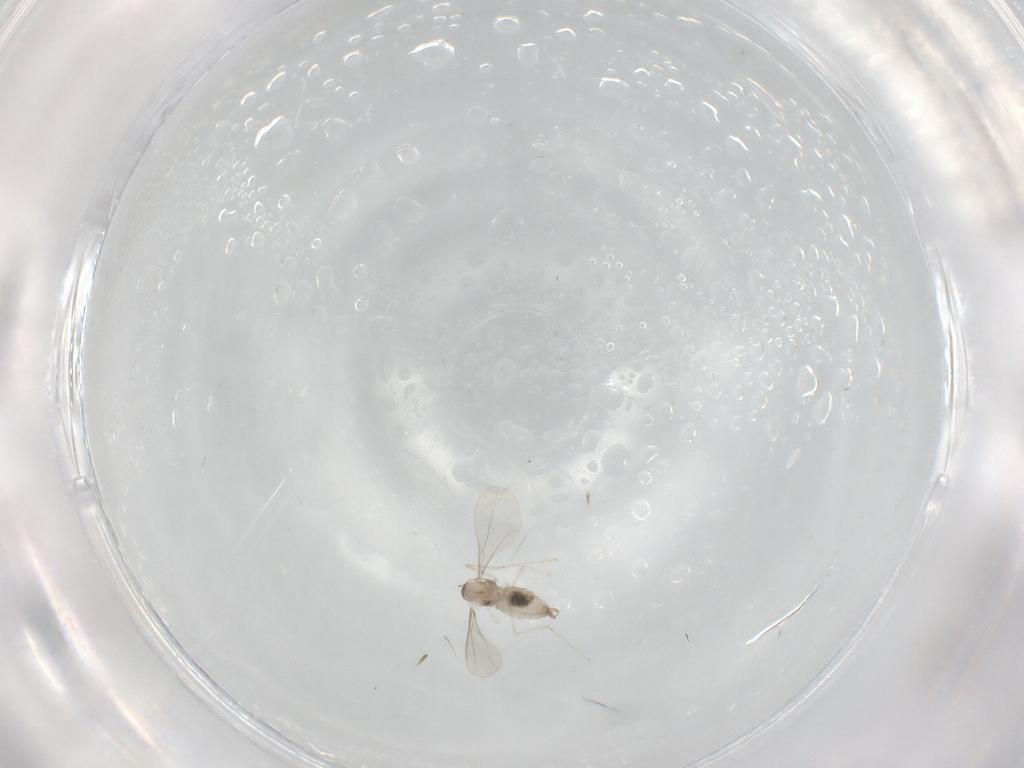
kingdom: Animalia
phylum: Arthropoda
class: Insecta
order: Diptera
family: Cecidomyiidae
